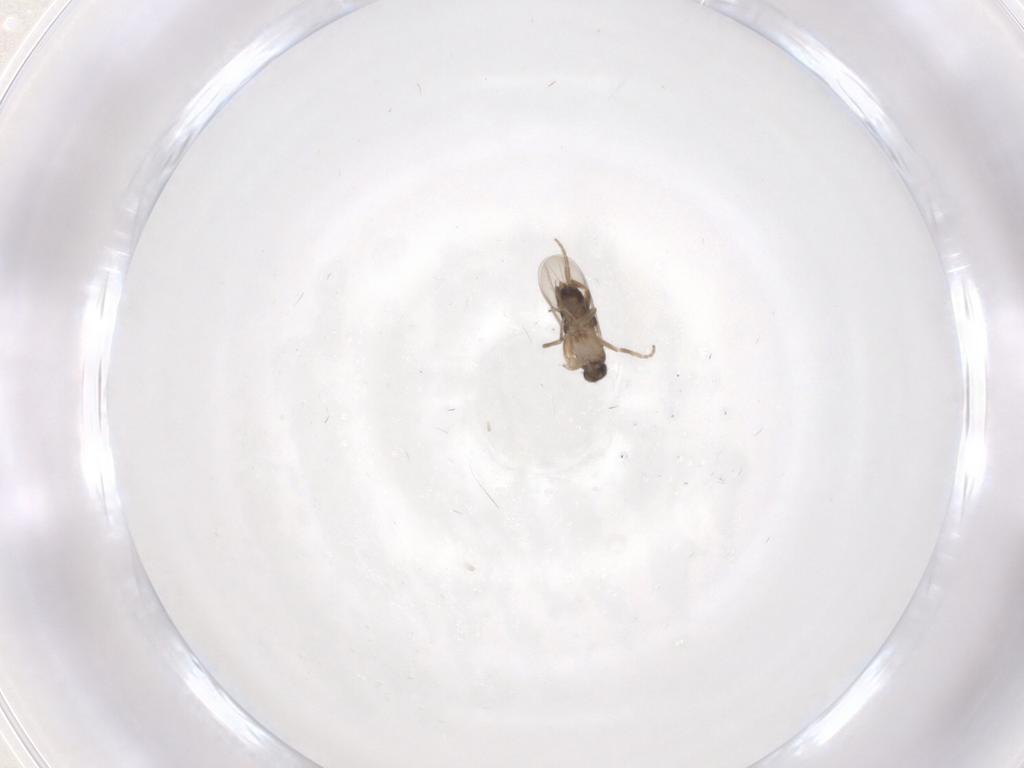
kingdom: Animalia
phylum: Arthropoda
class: Insecta
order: Diptera
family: Phoridae
